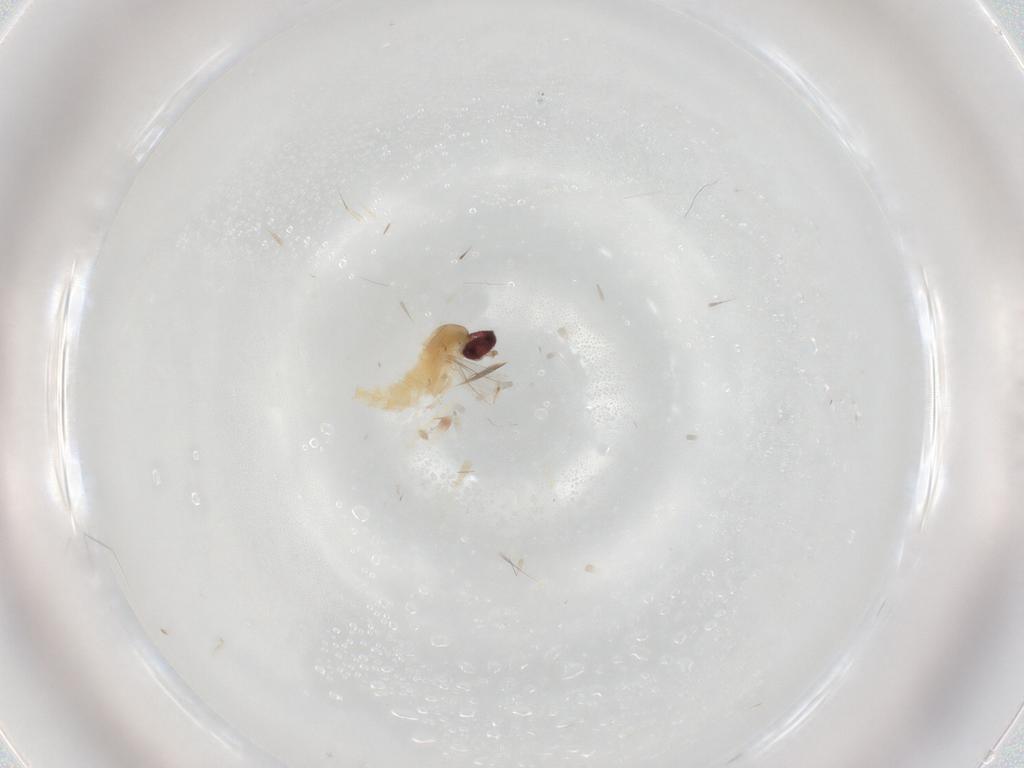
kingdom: Animalia
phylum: Arthropoda
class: Insecta
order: Diptera
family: Cecidomyiidae
